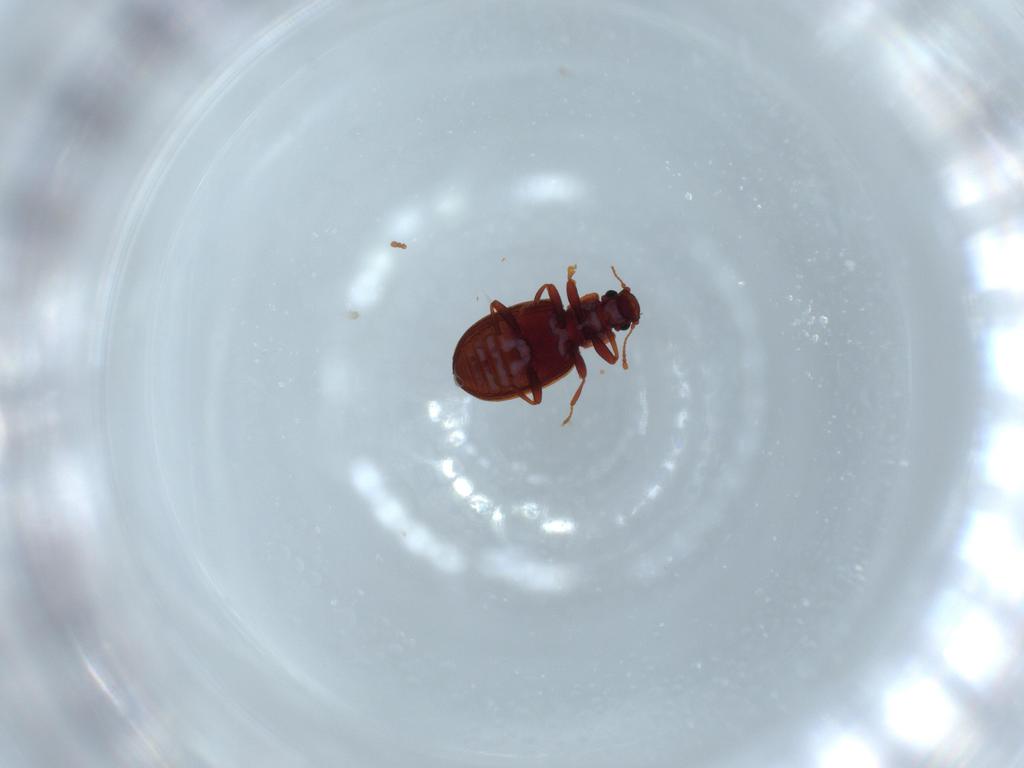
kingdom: Animalia
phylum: Arthropoda
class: Insecta
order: Coleoptera
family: Latridiidae
